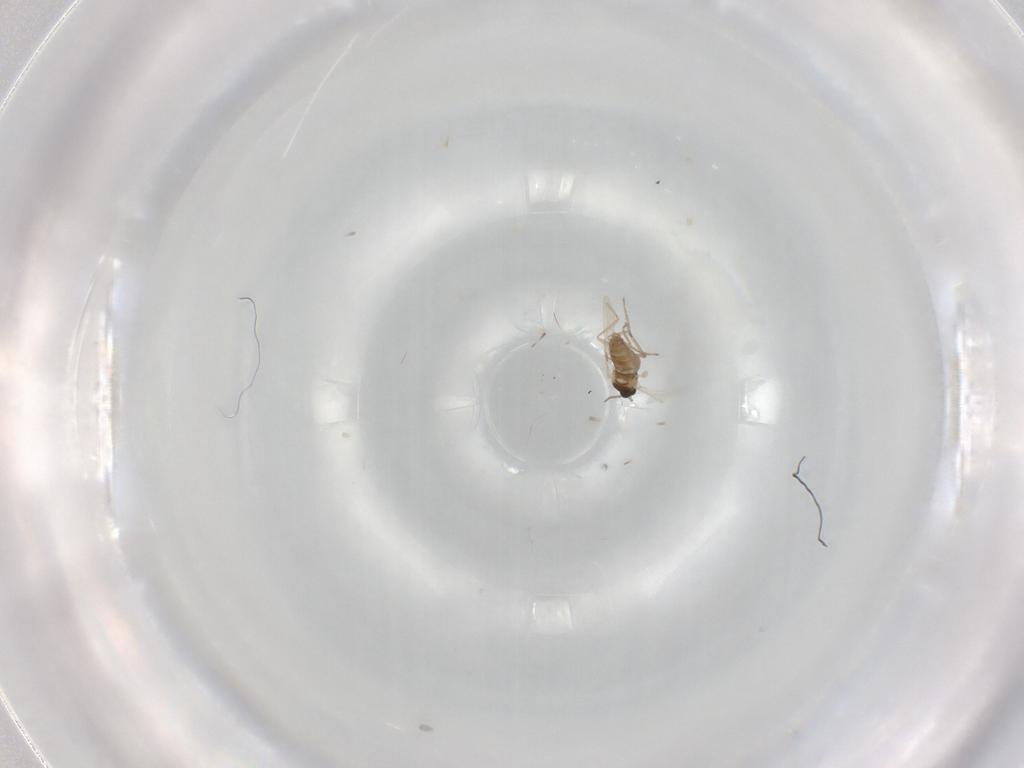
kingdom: Animalia
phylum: Arthropoda
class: Insecta
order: Diptera
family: Cecidomyiidae
